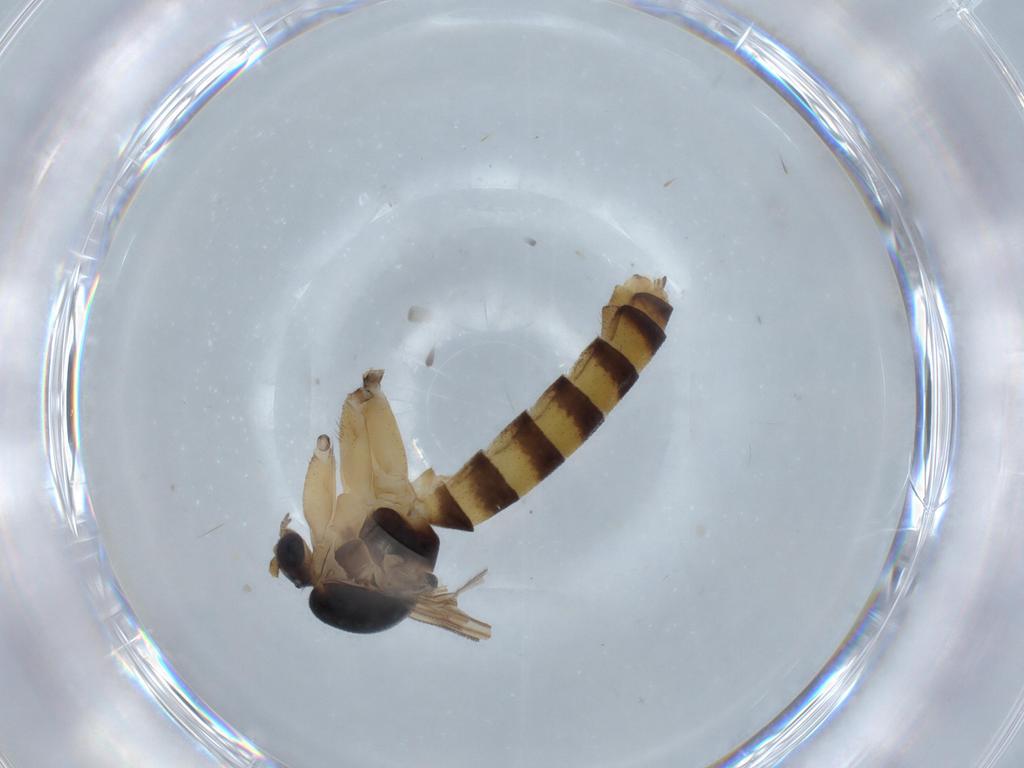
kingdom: Animalia
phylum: Arthropoda
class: Insecta
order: Diptera
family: Mycetophilidae
